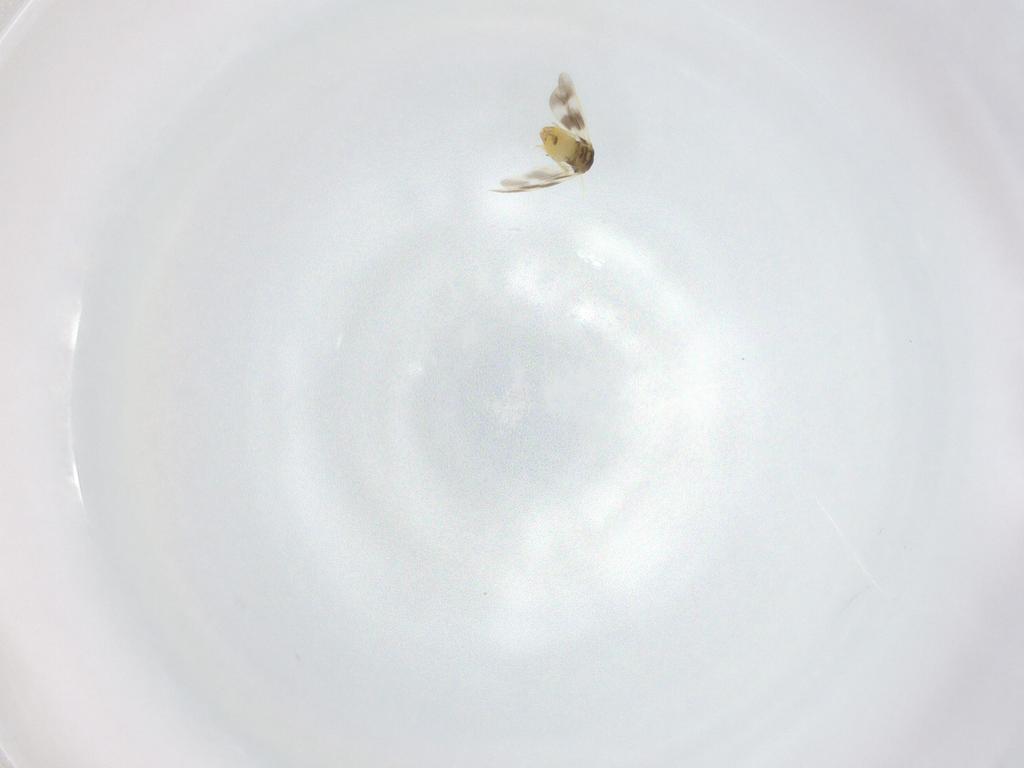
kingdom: Animalia
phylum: Arthropoda
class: Insecta
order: Hemiptera
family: Aleyrodidae
